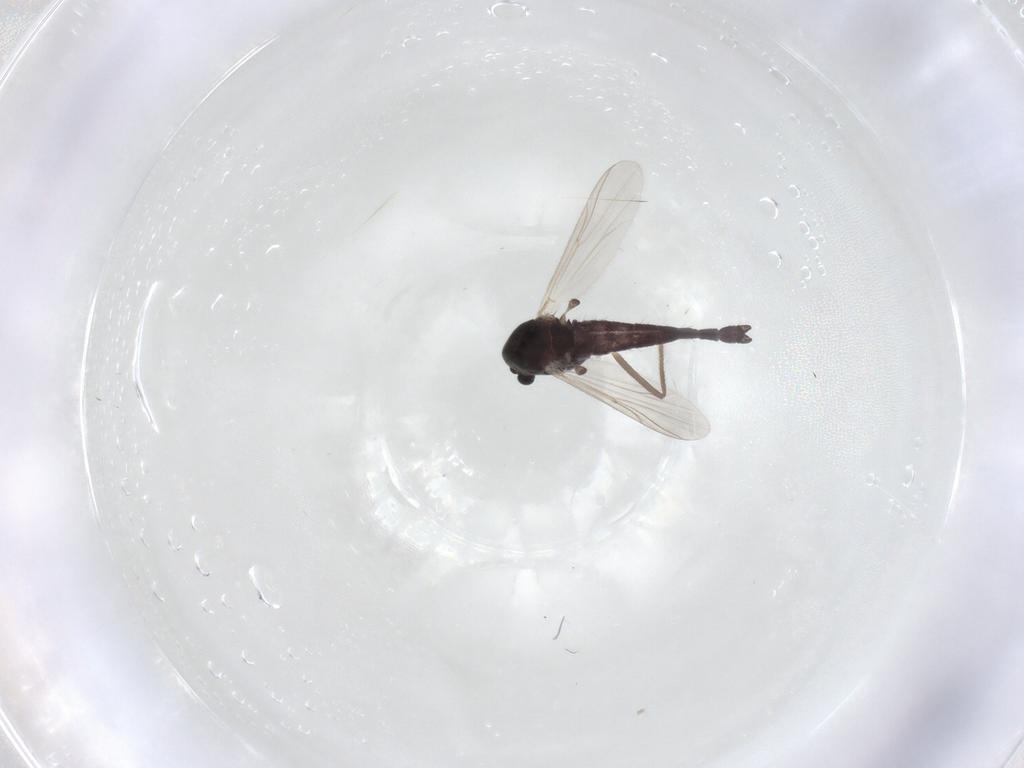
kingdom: Animalia
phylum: Arthropoda
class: Insecta
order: Diptera
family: Chironomidae
